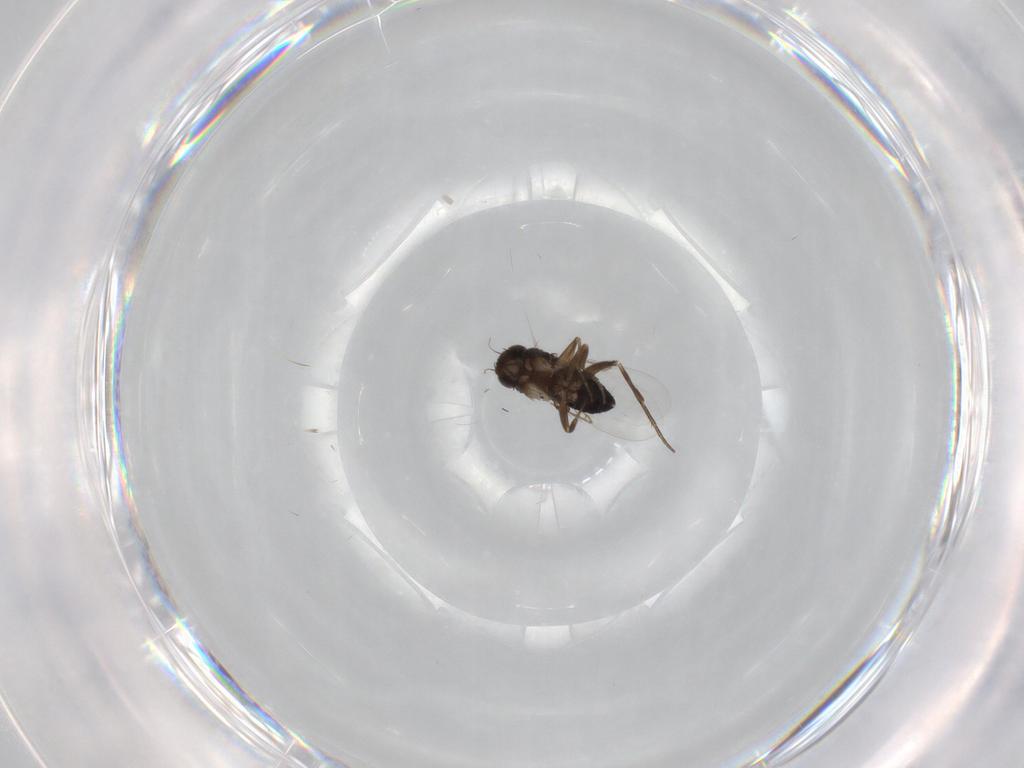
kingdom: Animalia
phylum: Arthropoda
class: Insecta
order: Diptera
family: Phoridae
